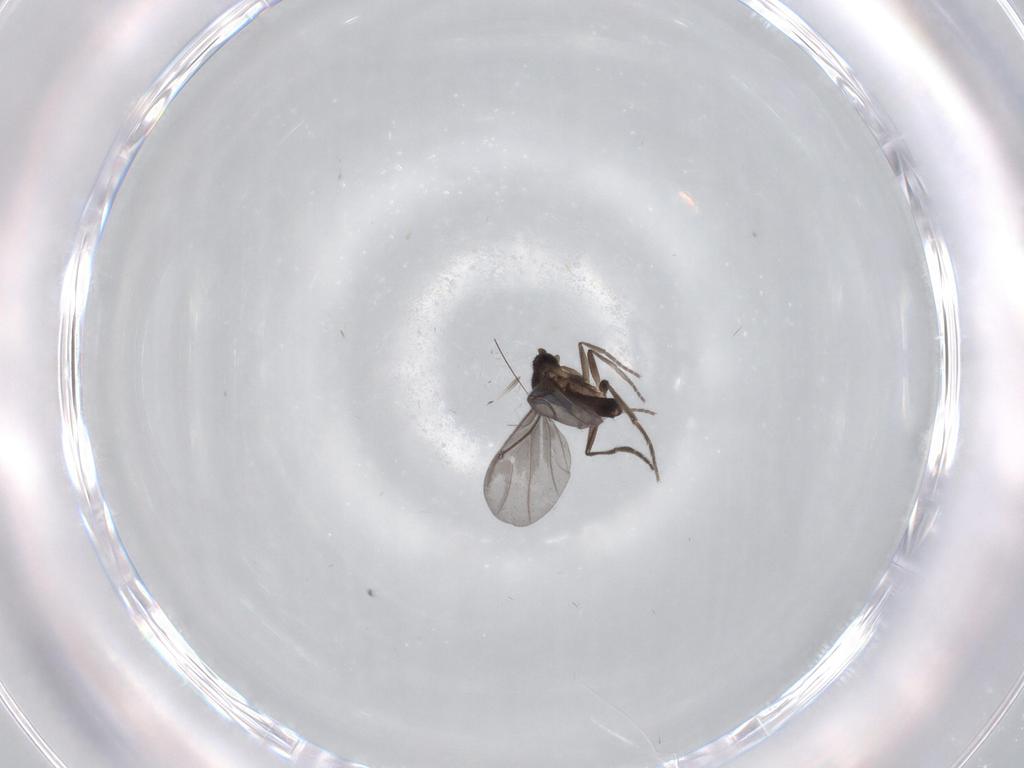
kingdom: Animalia
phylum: Arthropoda
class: Insecta
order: Diptera
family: Phoridae
